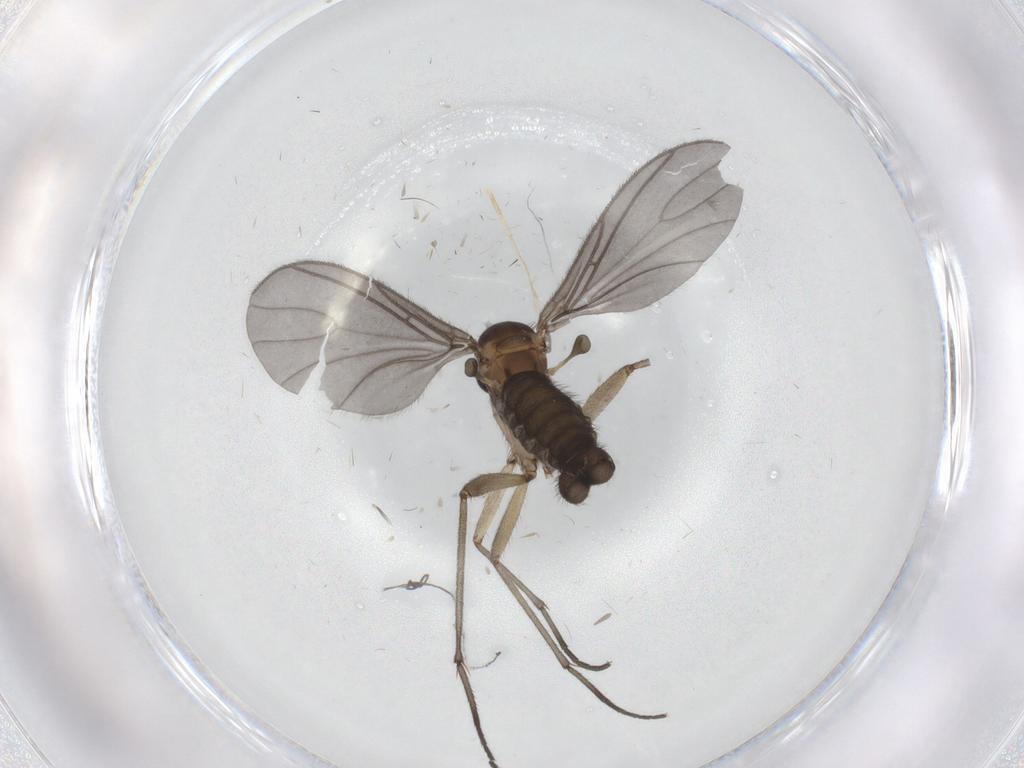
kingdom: Animalia
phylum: Arthropoda
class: Insecta
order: Diptera
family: Sciaridae
